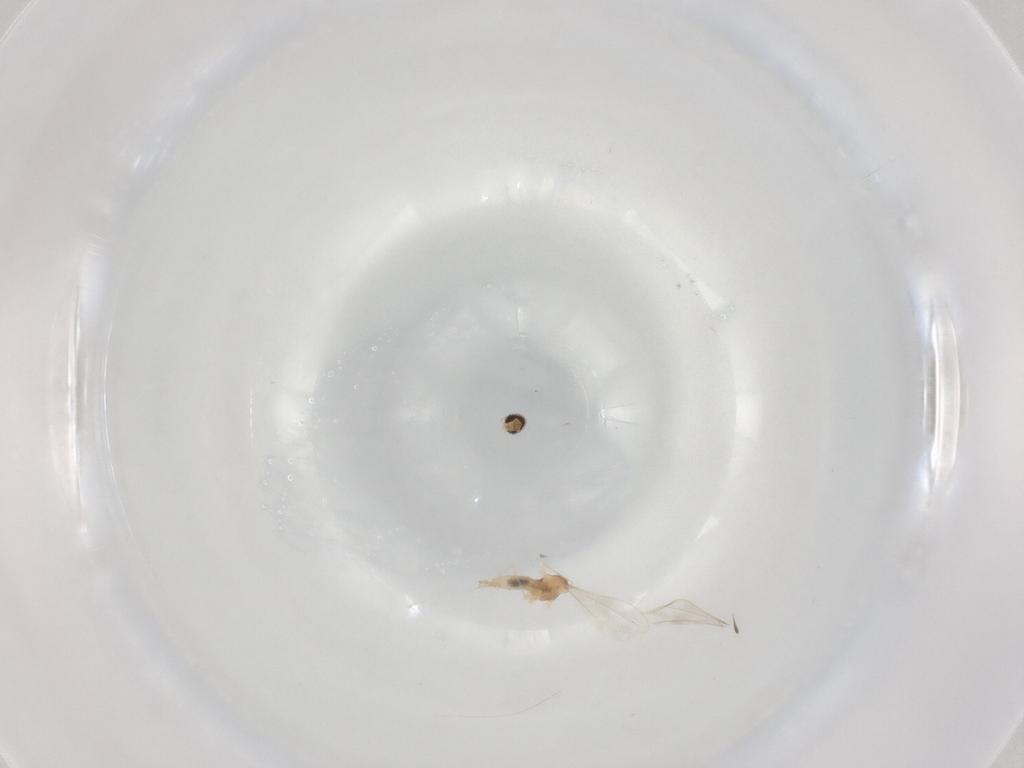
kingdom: Animalia
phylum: Arthropoda
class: Insecta
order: Diptera
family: Cecidomyiidae
